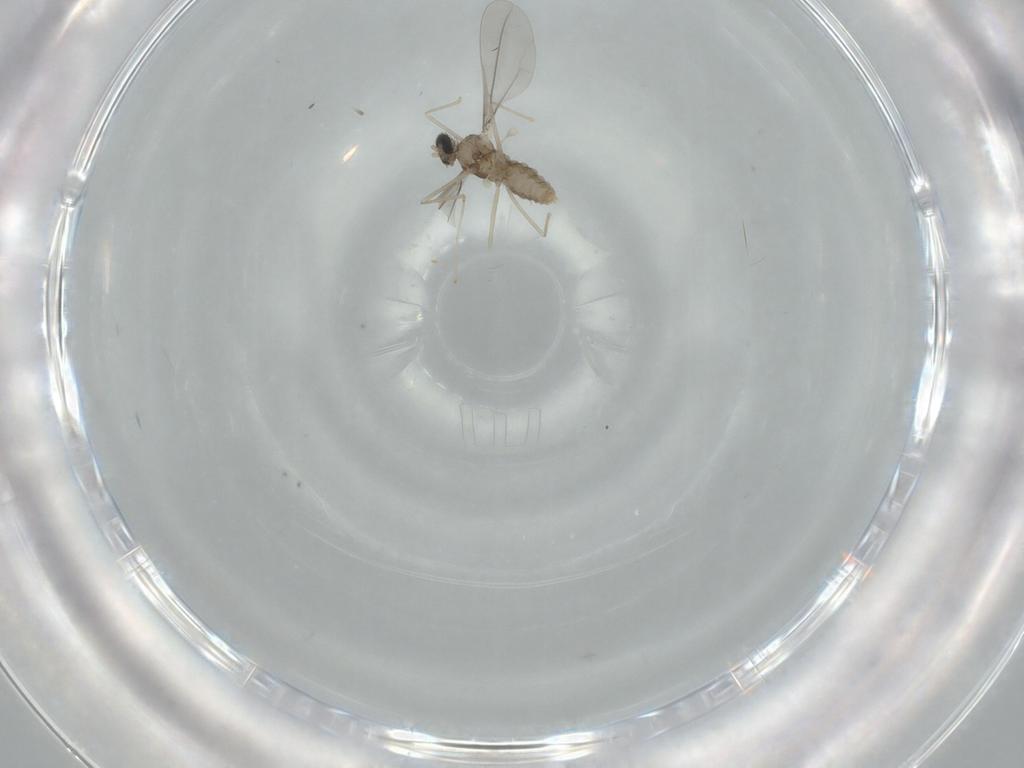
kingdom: Animalia
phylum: Arthropoda
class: Insecta
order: Diptera
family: Cecidomyiidae
